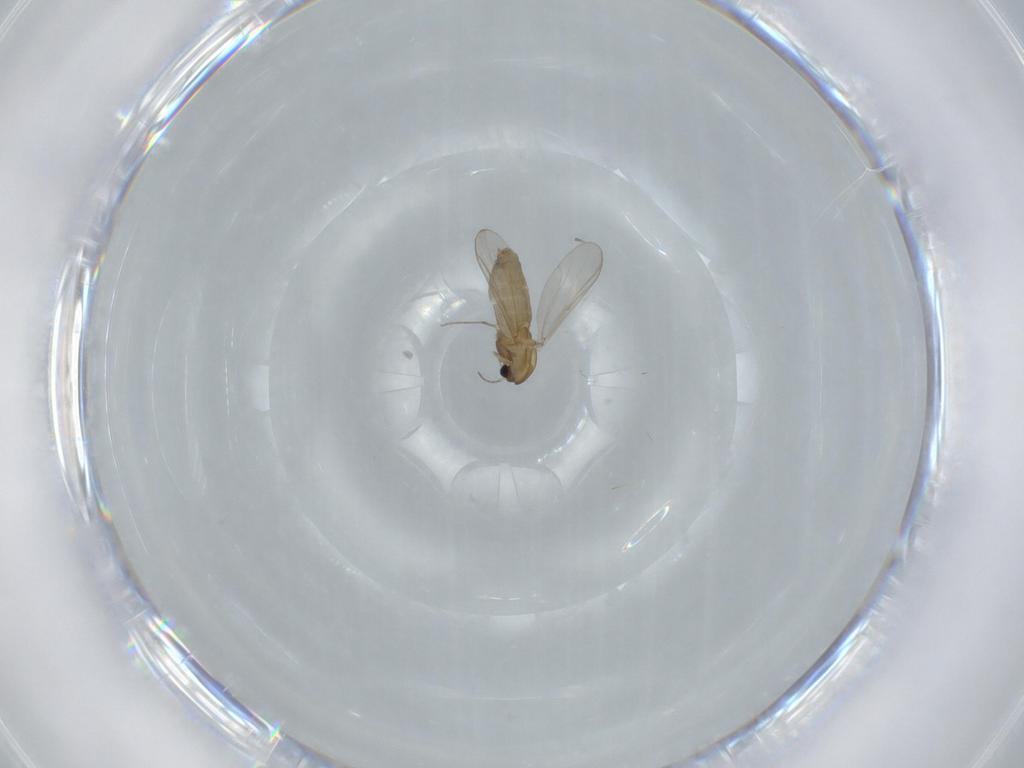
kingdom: Animalia
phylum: Arthropoda
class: Insecta
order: Diptera
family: Chironomidae
